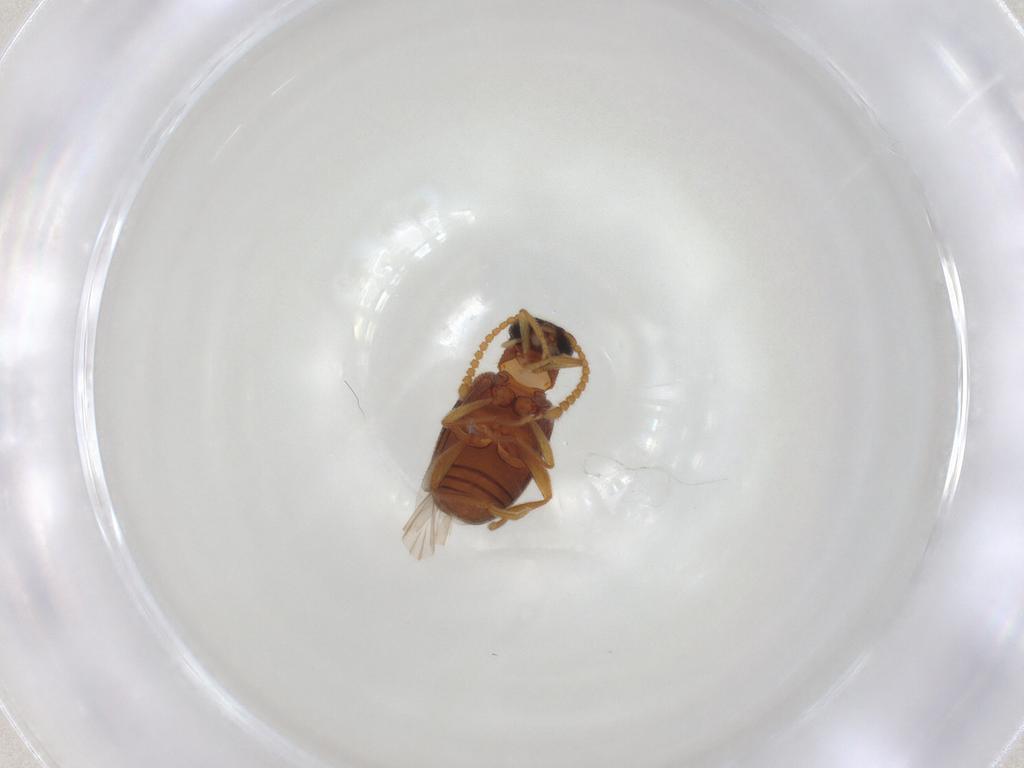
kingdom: Animalia
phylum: Arthropoda
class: Insecta
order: Coleoptera
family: Aderidae
